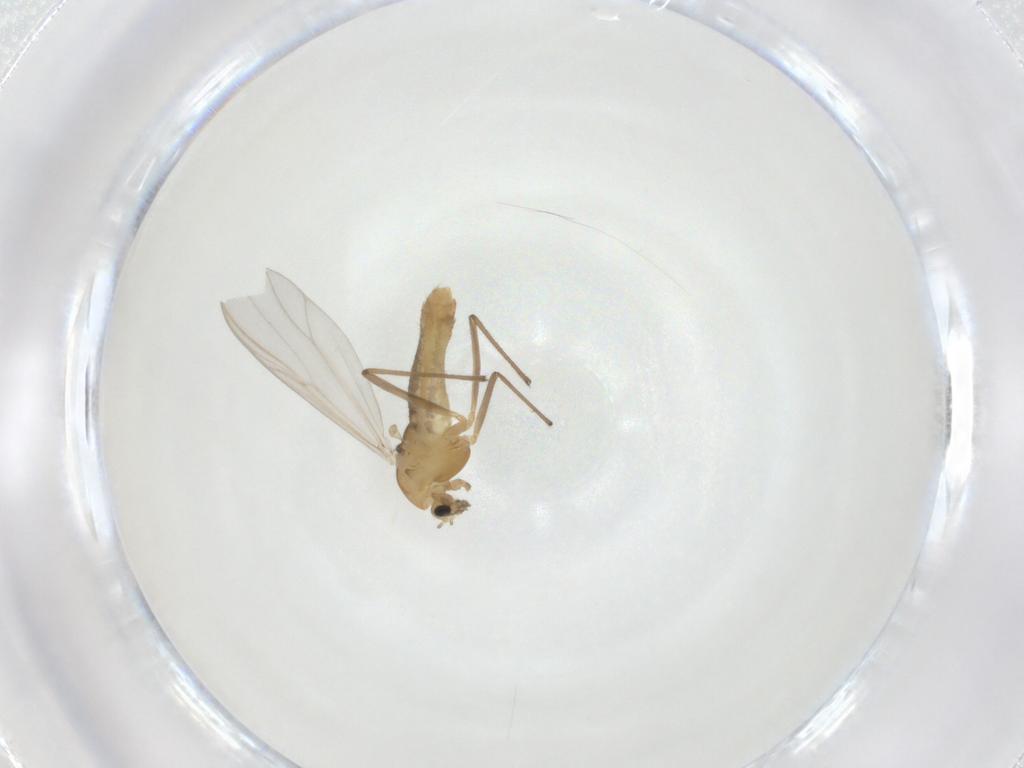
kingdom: Animalia
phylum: Arthropoda
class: Insecta
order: Diptera
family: Chironomidae
